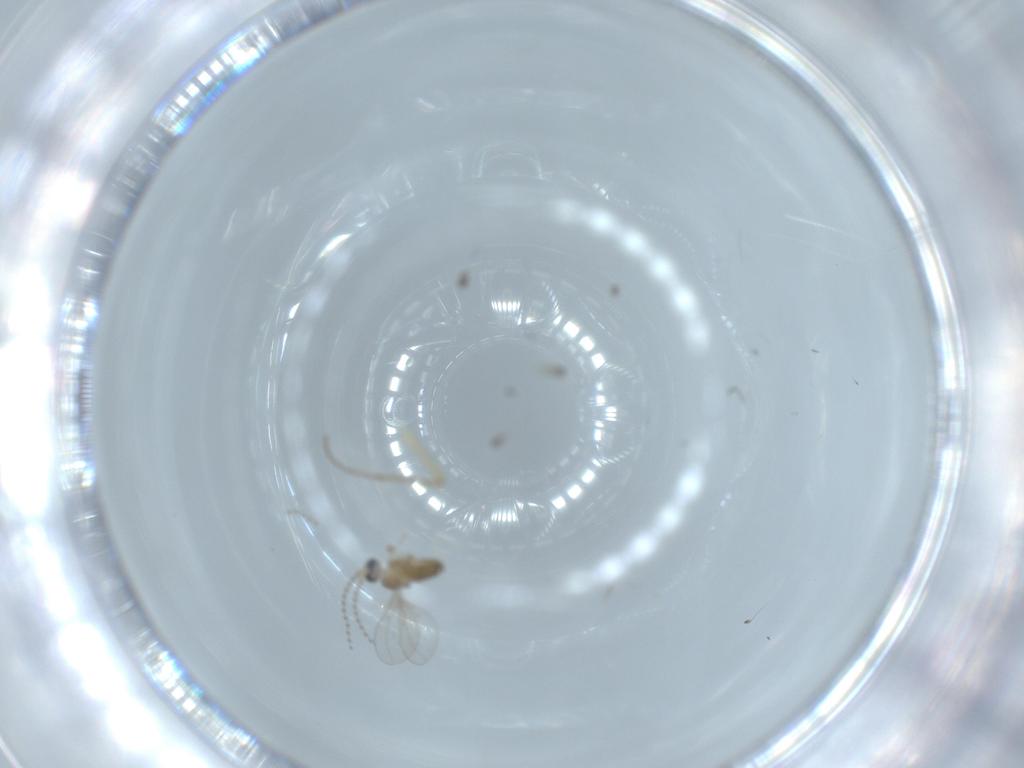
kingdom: Animalia
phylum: Arthropoda
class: Insecta
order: Diptera
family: Cecidomyiidae
